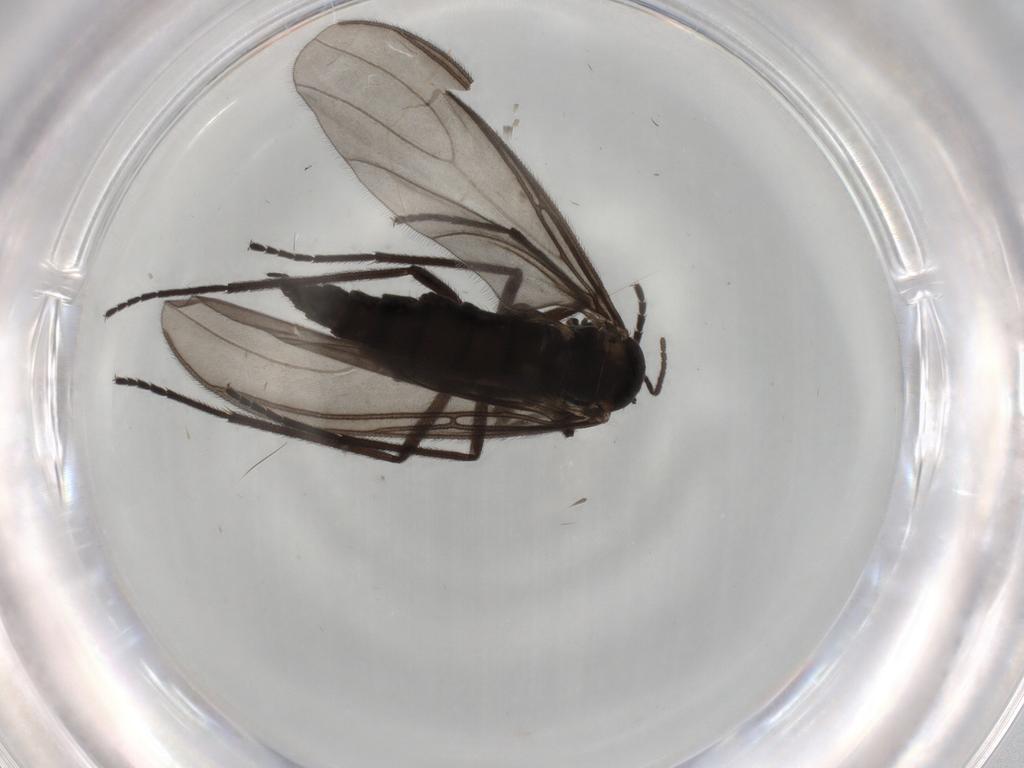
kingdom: Animalia
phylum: Arthropoda
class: Insecta
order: Diptera
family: Sciaridae
